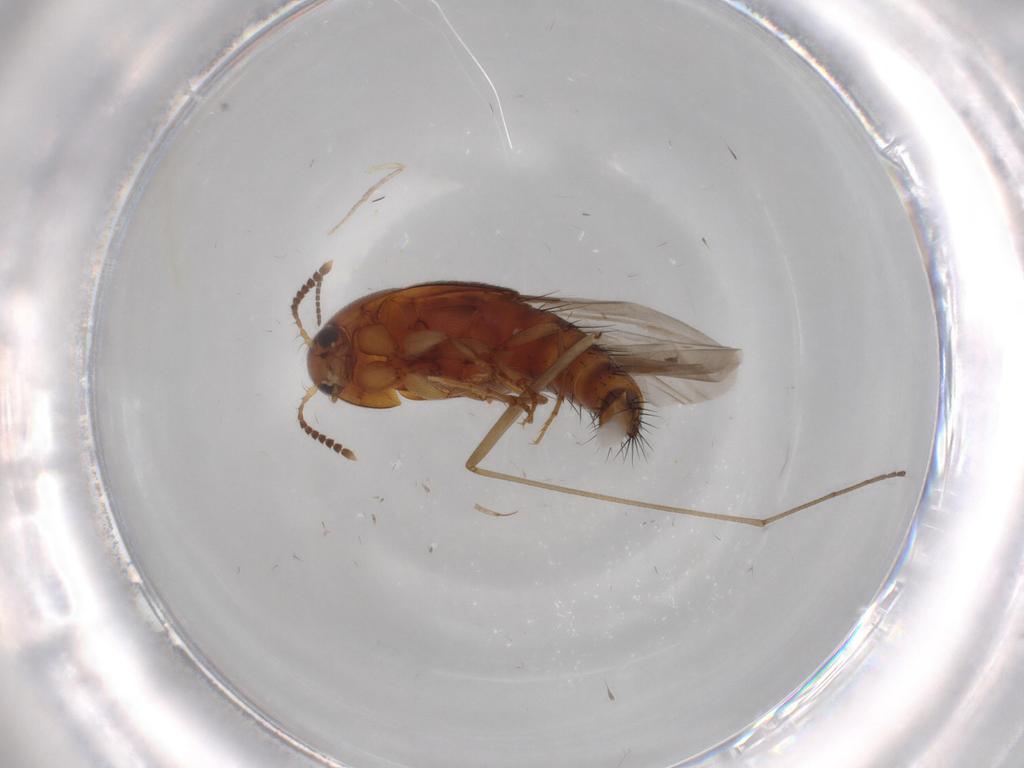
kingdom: Animalia
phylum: Arthropoda
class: Insecta
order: Coleoptera
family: Staphylinidae
